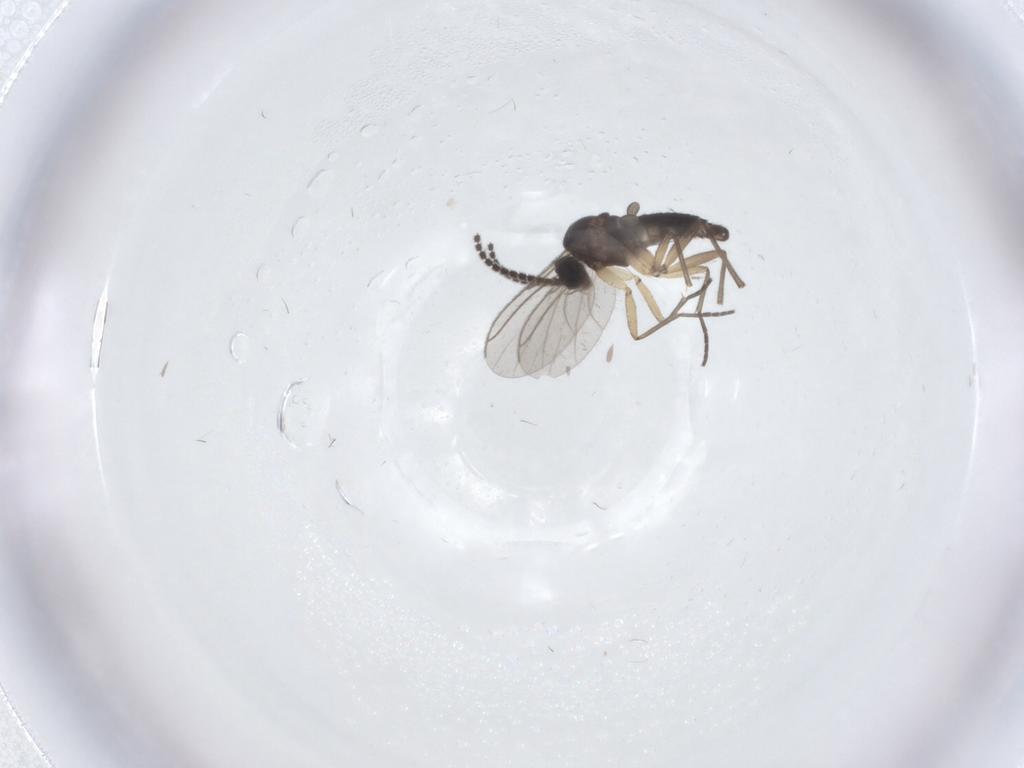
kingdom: Animalia
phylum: Arthropoda
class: Insecta
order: Diptera
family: Sciaridae
